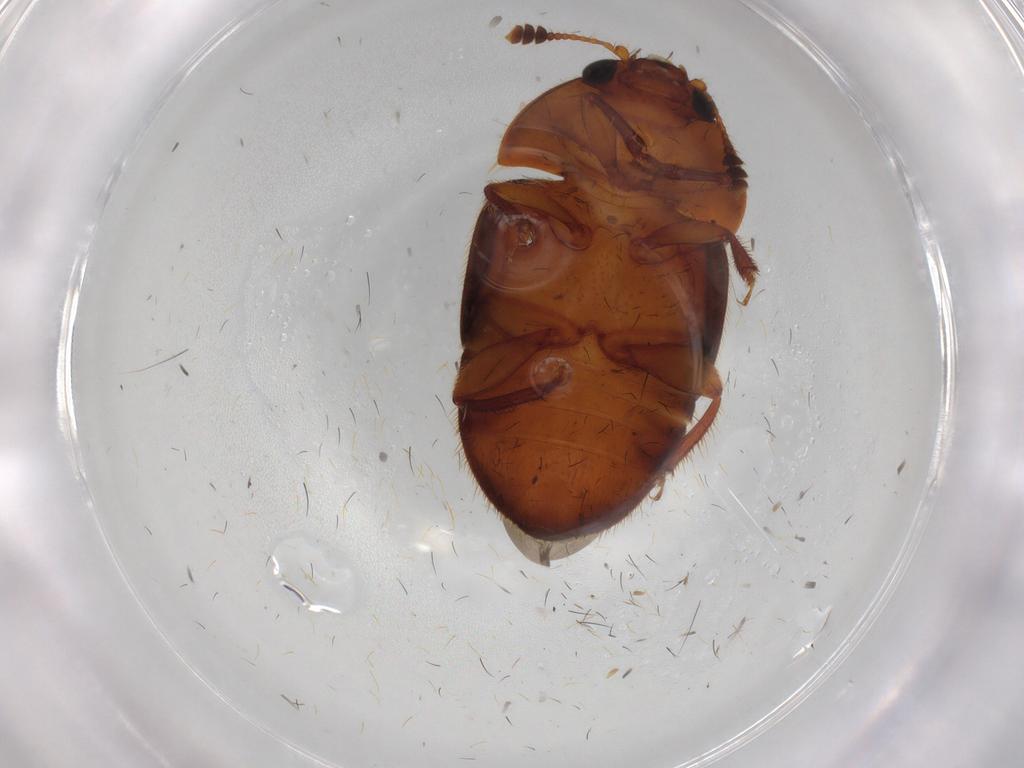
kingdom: Animalia
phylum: Arthropoda
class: Insecta
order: Coleoptera
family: Nitidulidae
